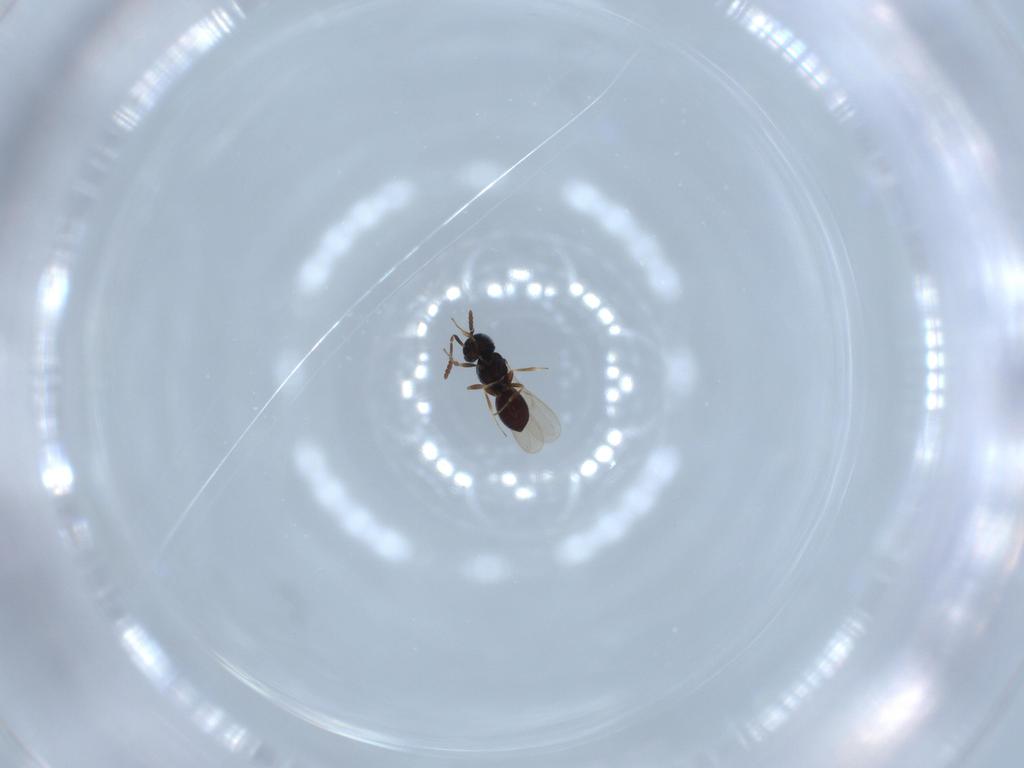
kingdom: Animalia
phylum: Arthropoda
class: Insecta
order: Hymenoptera
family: Scelionidae
